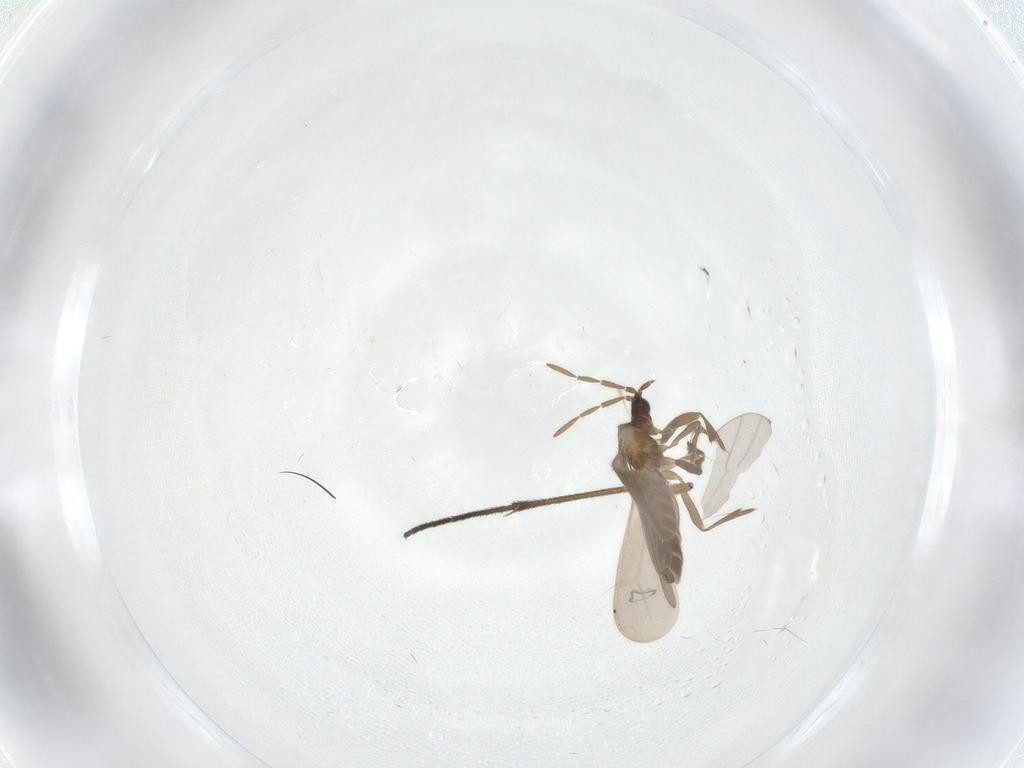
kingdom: Animalia
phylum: Arthropoda
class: Insecta
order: Hemiptera
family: Enicocephalidae
